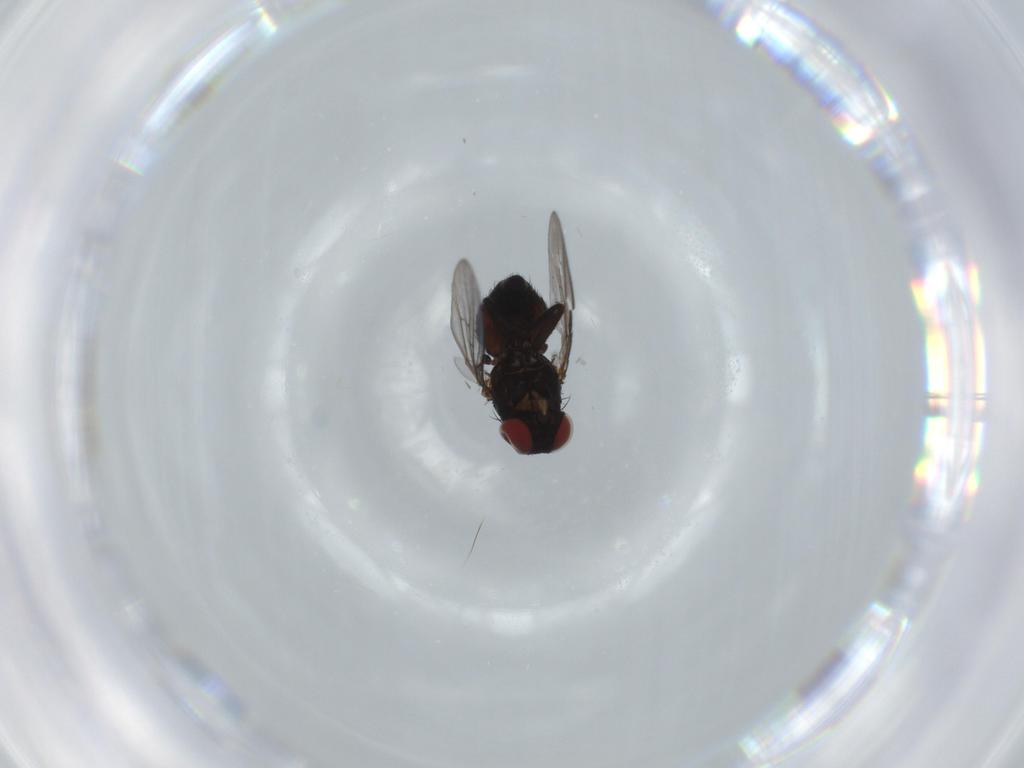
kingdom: Animalia
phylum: Arthropoda
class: Insecta
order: Diptera
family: Agromyzidae
